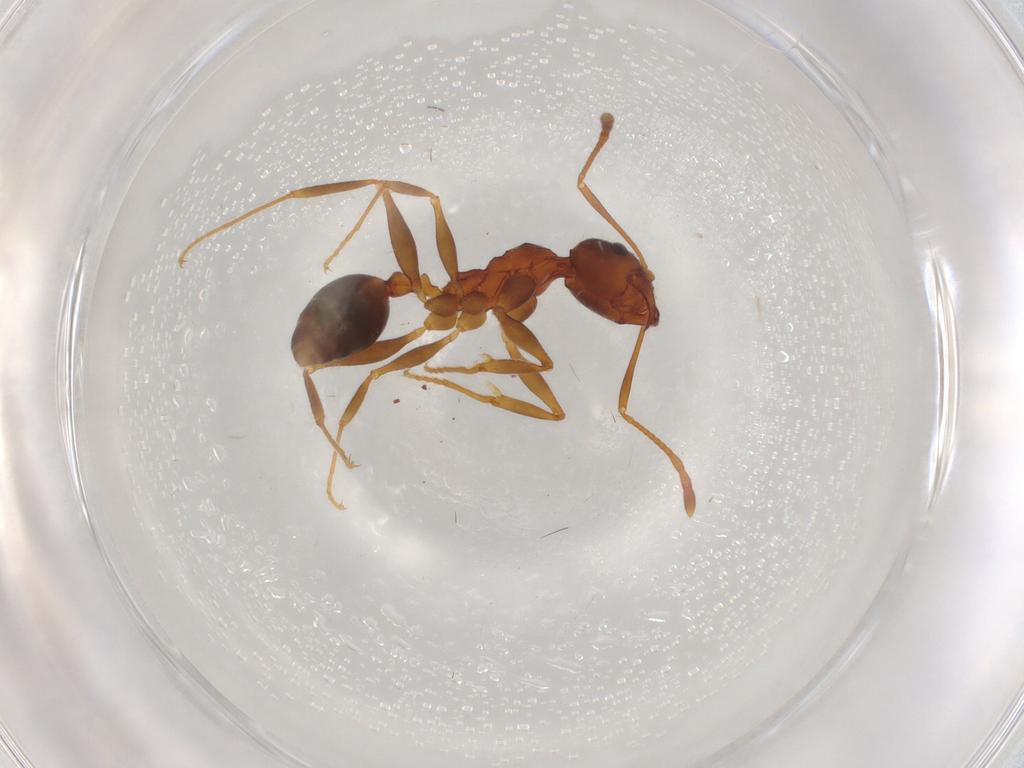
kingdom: Animalia
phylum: Arthropoda
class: Insecta
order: Hymenoptera
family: Formicidae
